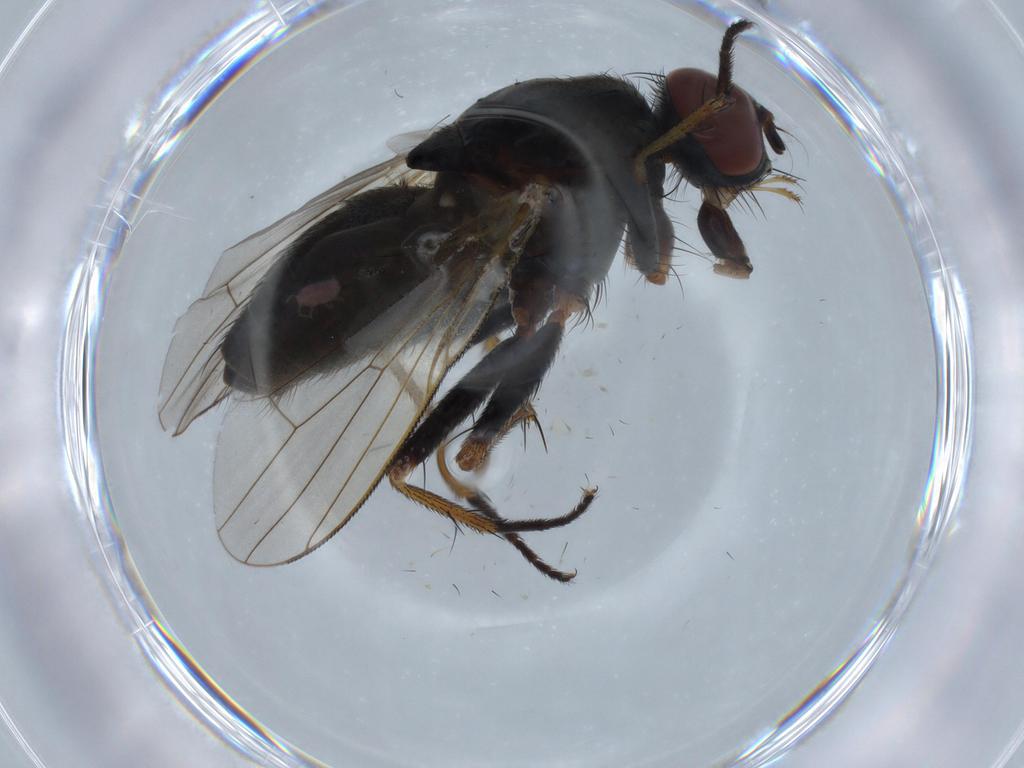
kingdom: Animalia
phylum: Arthropoda
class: Insecta
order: Diptera
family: Muscidae
